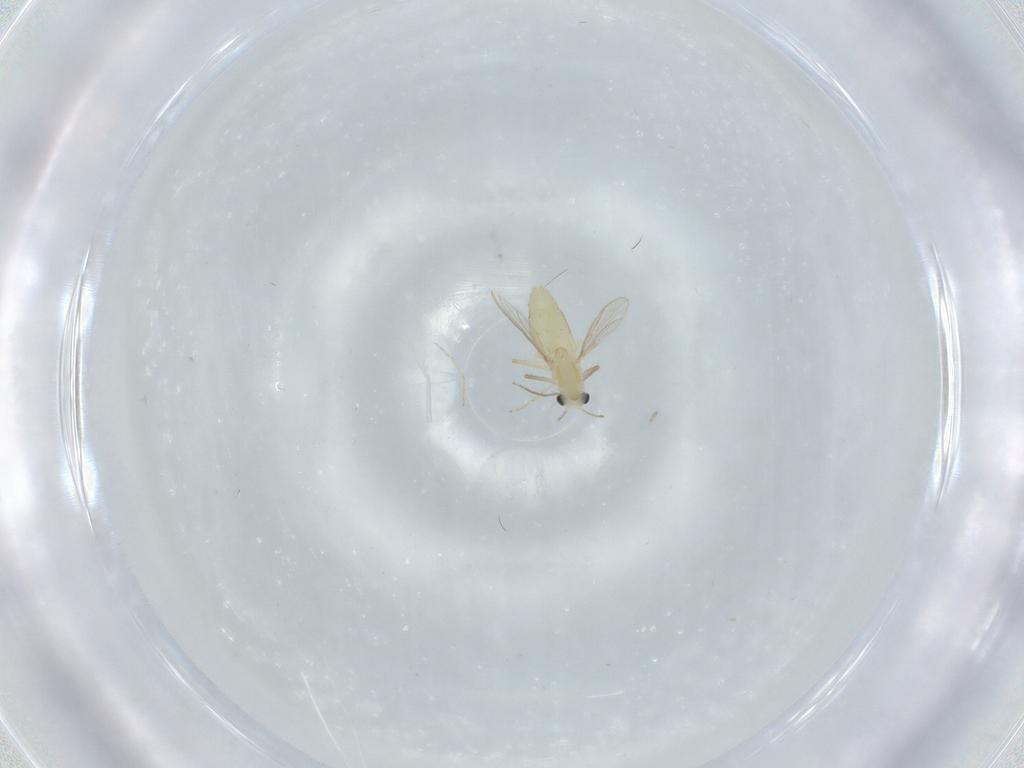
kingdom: Animalia
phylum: Arthropoda
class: Insecta
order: Diptera
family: Chironomidae
